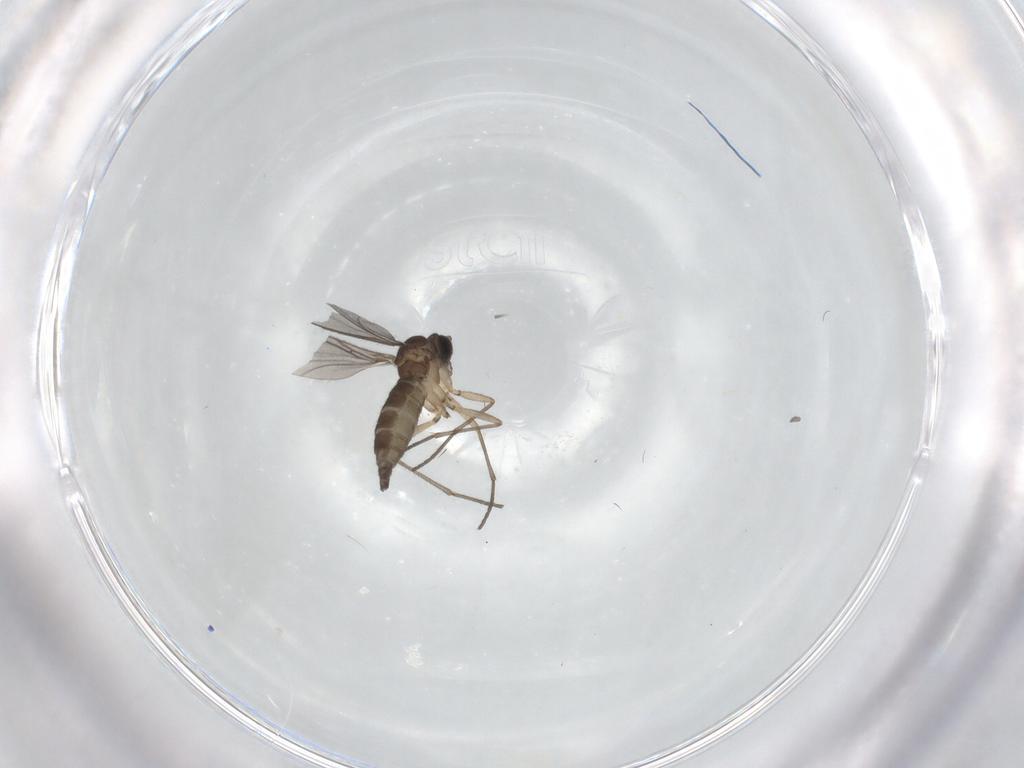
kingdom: Animalia
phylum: Arthropoda
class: Insecta
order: Diptera
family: Sciaridae
